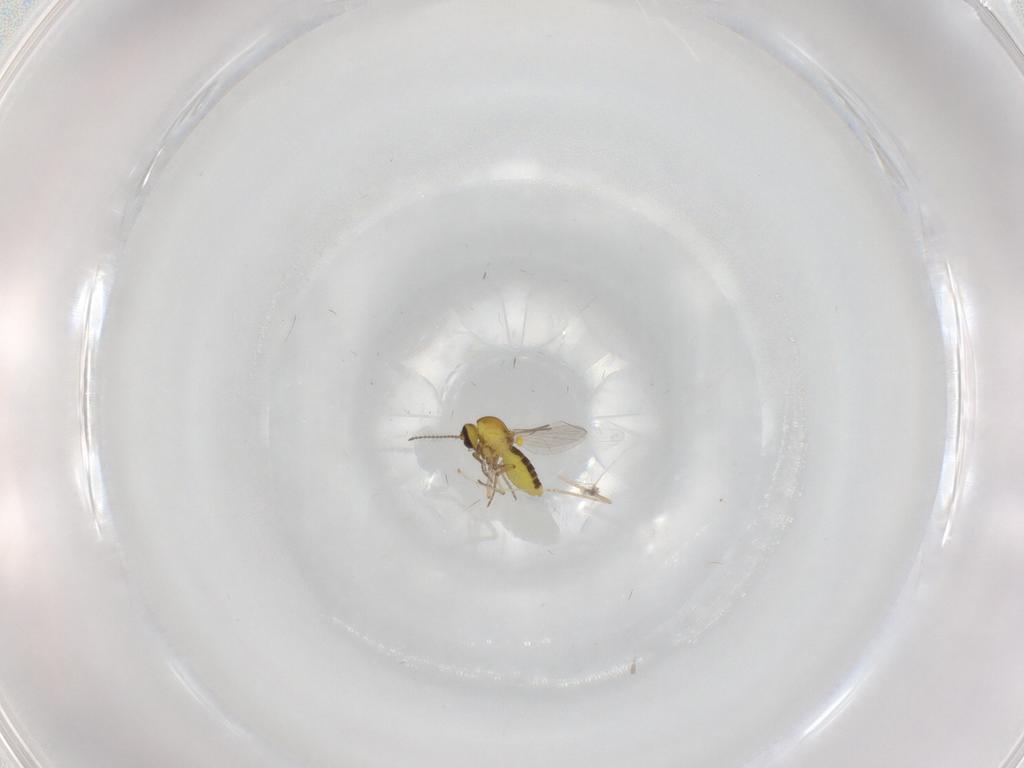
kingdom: Animalia
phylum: Arthropoda
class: Insecta
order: Diptera
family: Ceratopogonidae
